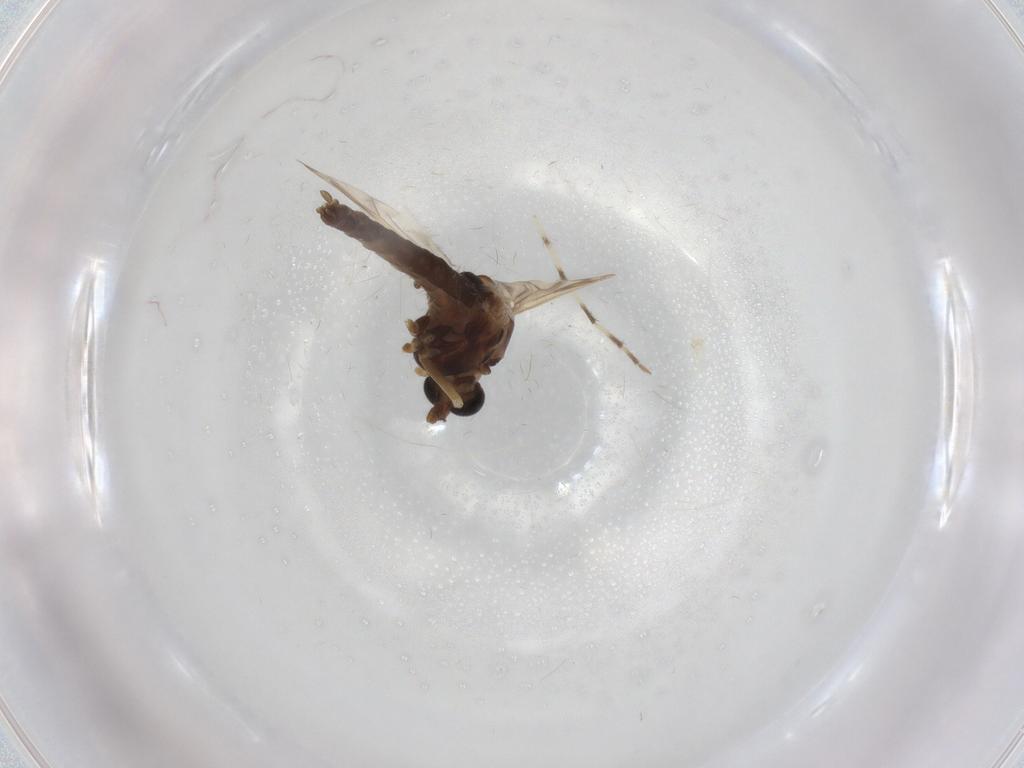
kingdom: Animalia
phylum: Arthropoda
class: Insecta
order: Diptera
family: Chironomidae
